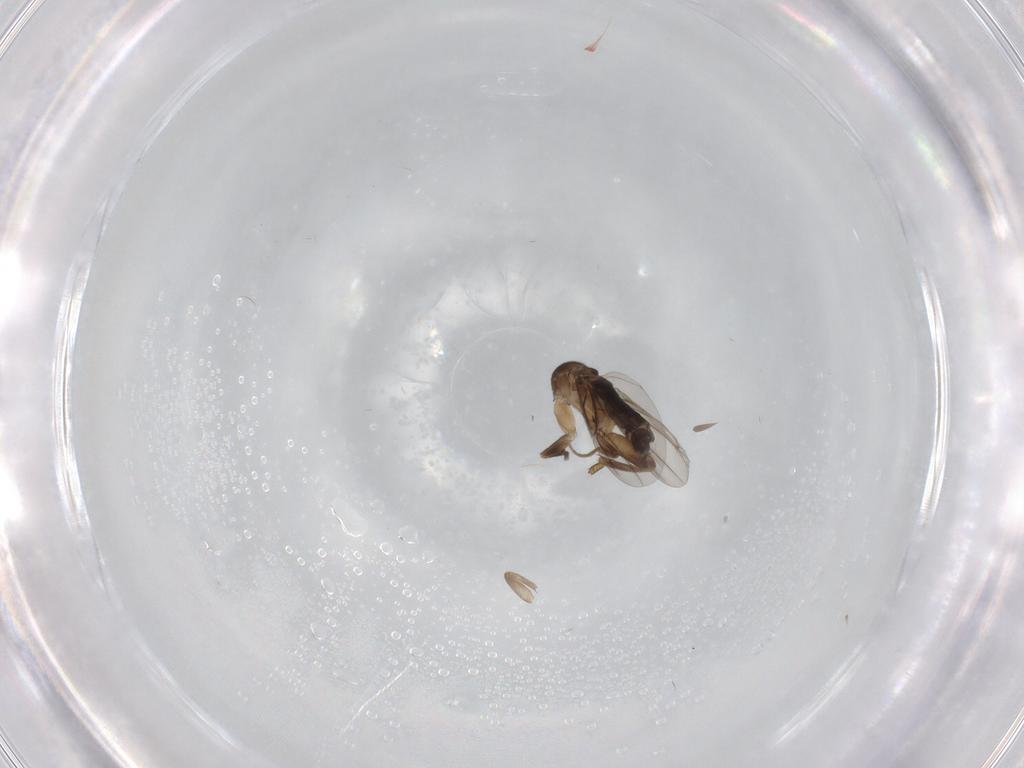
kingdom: Animalia
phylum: Arthropoda
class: Insecta
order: Diptera
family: Phoridae
